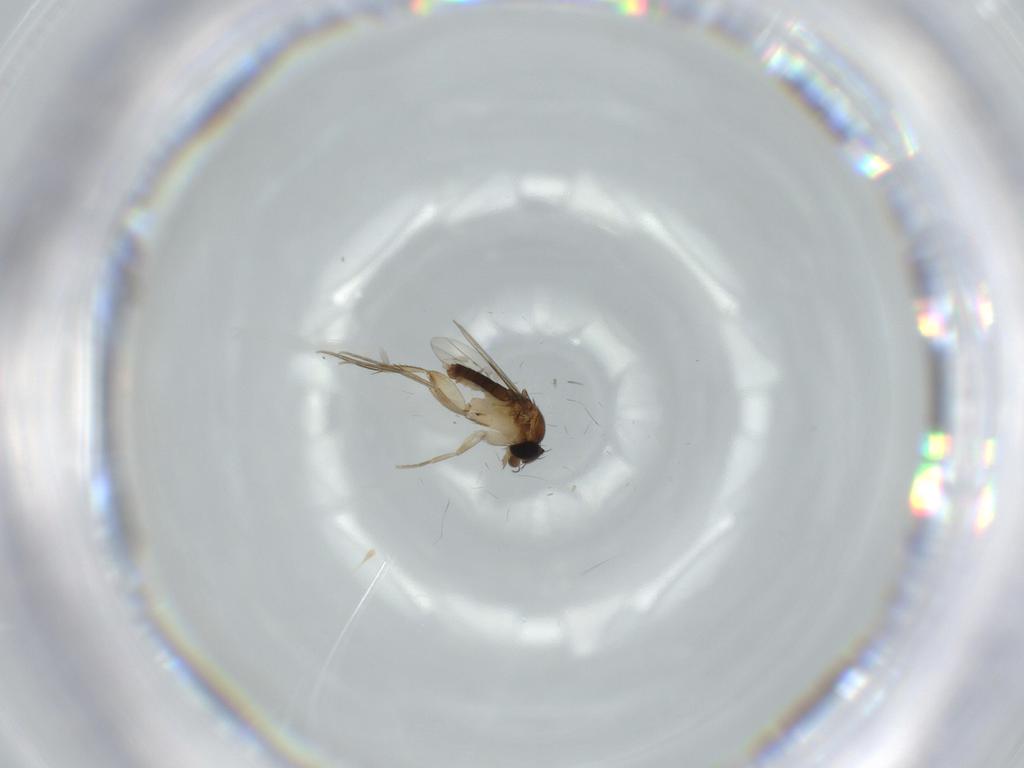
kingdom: Animalia
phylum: Arthropoda
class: Insecta
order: Diptera
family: Phoridae
